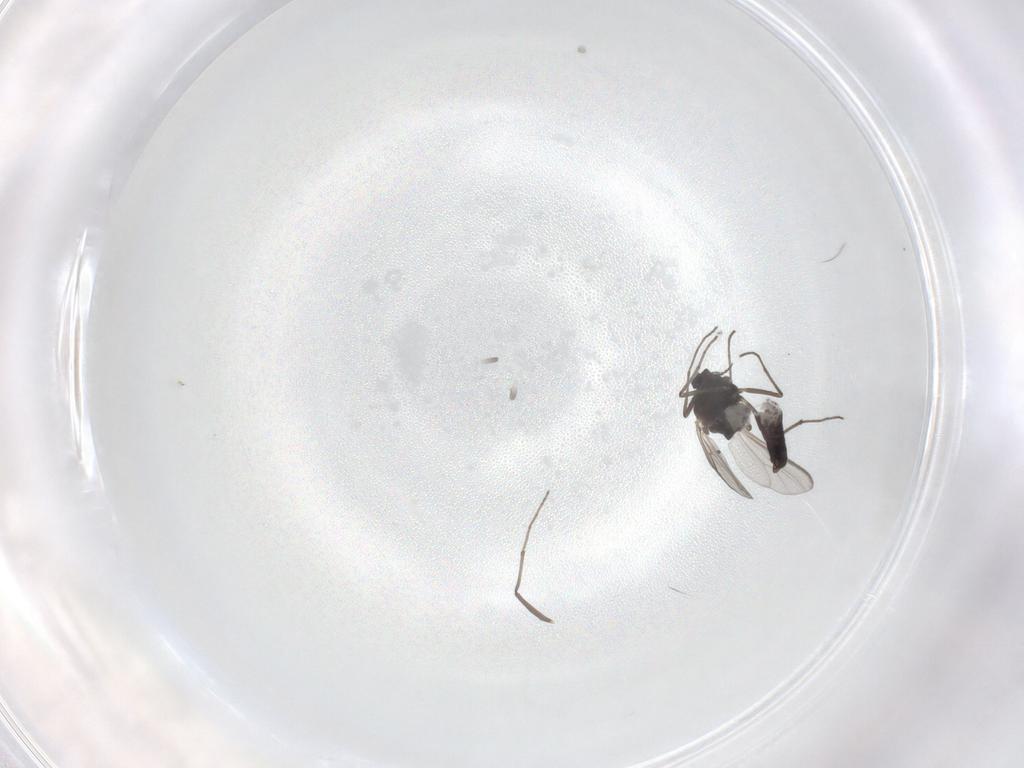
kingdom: Animalia
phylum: Arthropoda
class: Insecta
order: Diptera
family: Chironomidae
